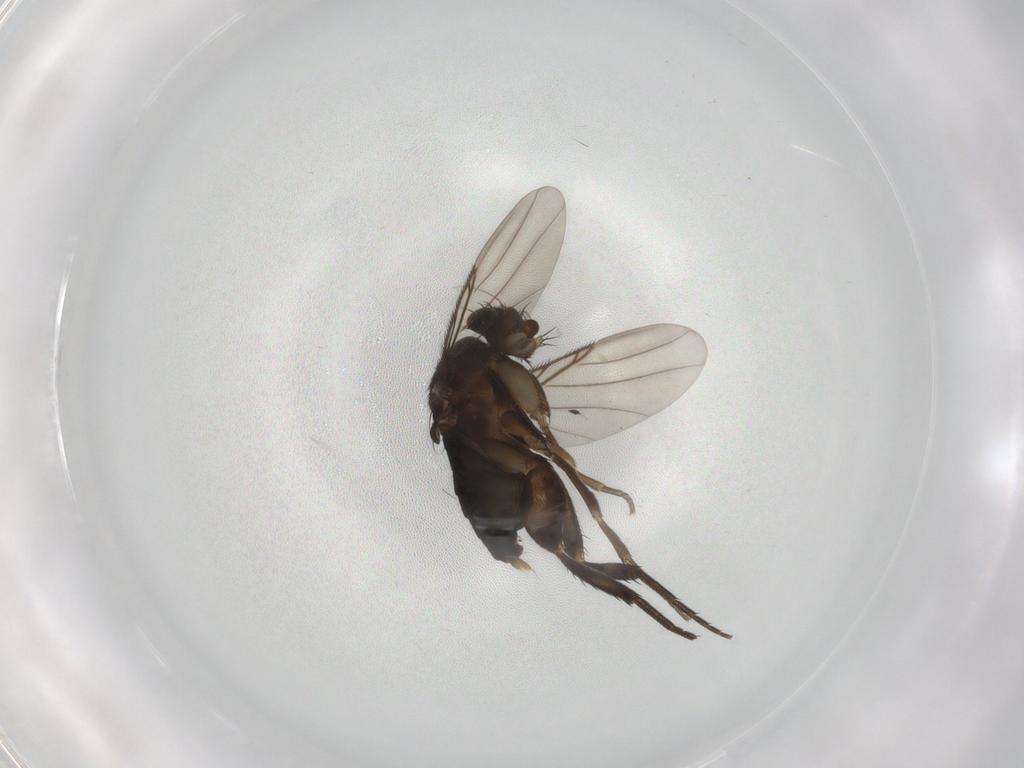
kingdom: Animalia
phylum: Arthropoda
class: Insecta
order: Diptera
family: Phoridae
